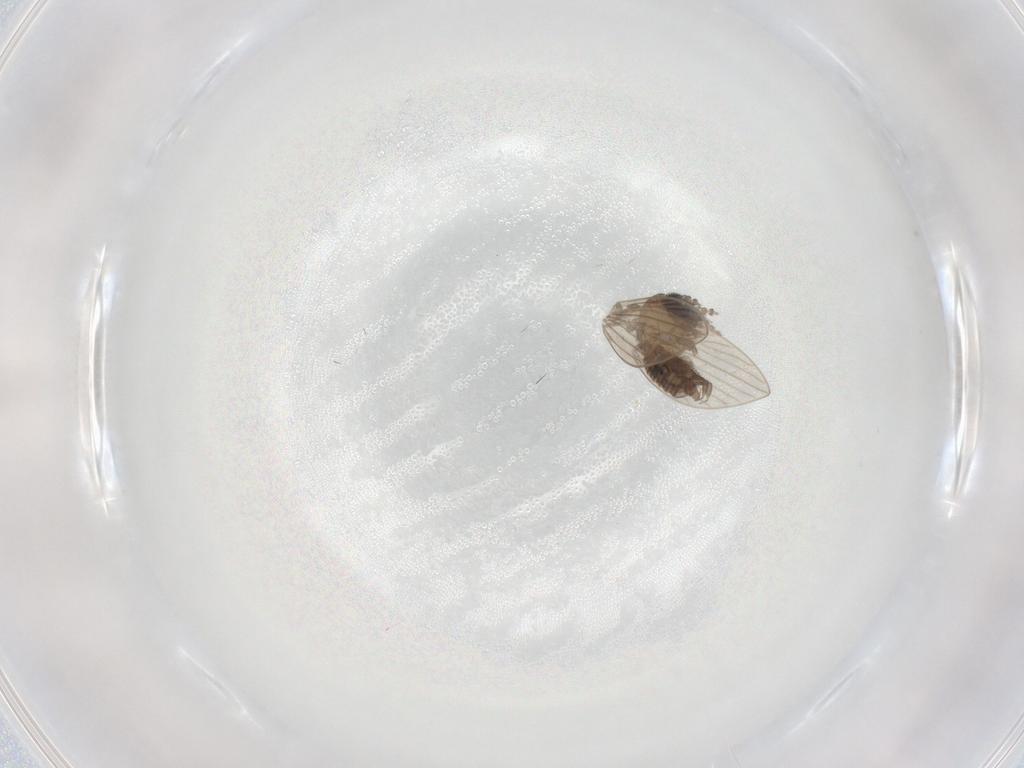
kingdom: Animalia
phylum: Arthropoda
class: Insecta
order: Diptera
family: Psychodidae
